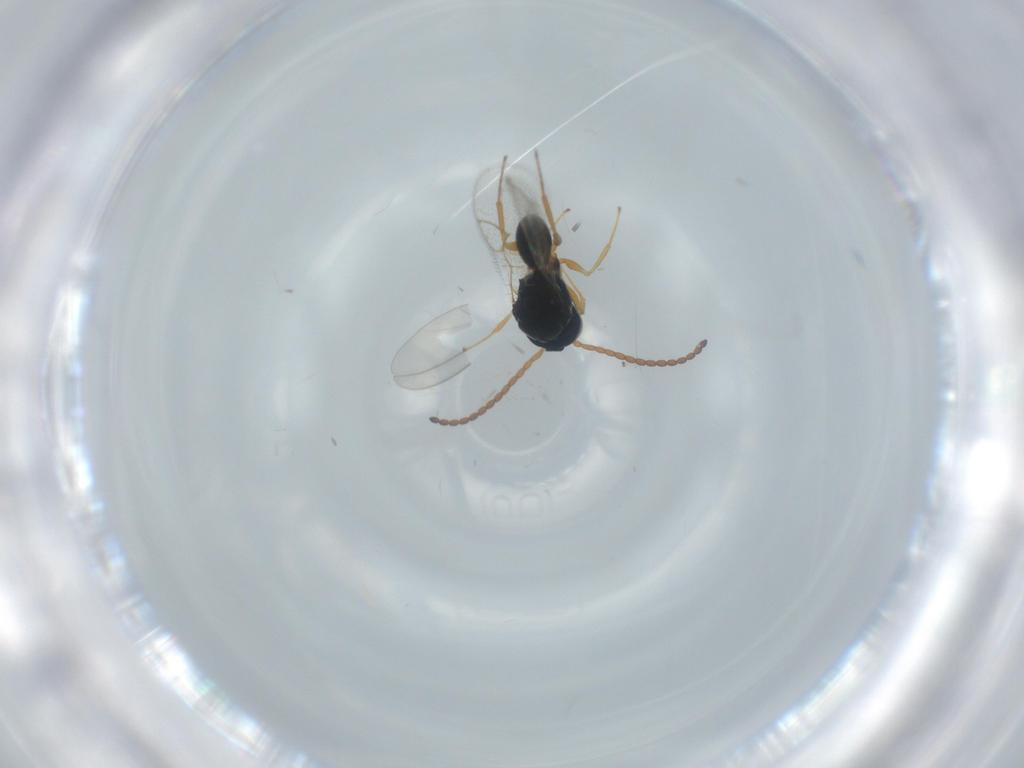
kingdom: Animalia
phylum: Arthropoda
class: Insecta
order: Hymenoptera
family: Figitidae
